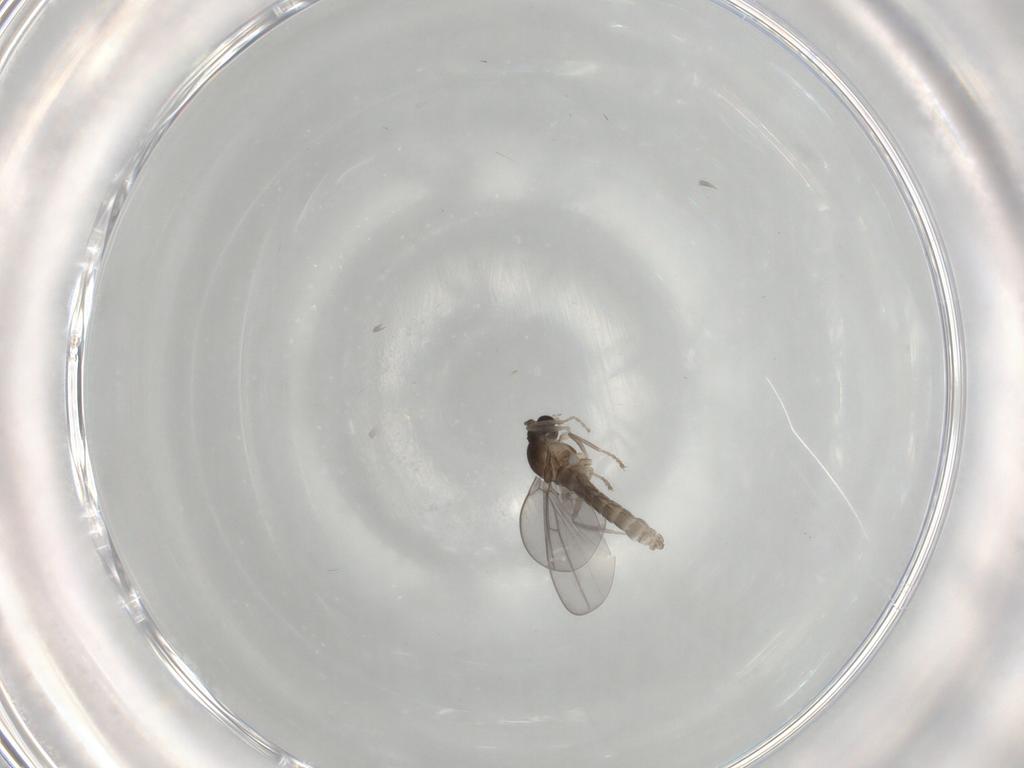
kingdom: Animalia
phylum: Arthropoda
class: Insecta
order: Diptera
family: Cecidomyiidae
